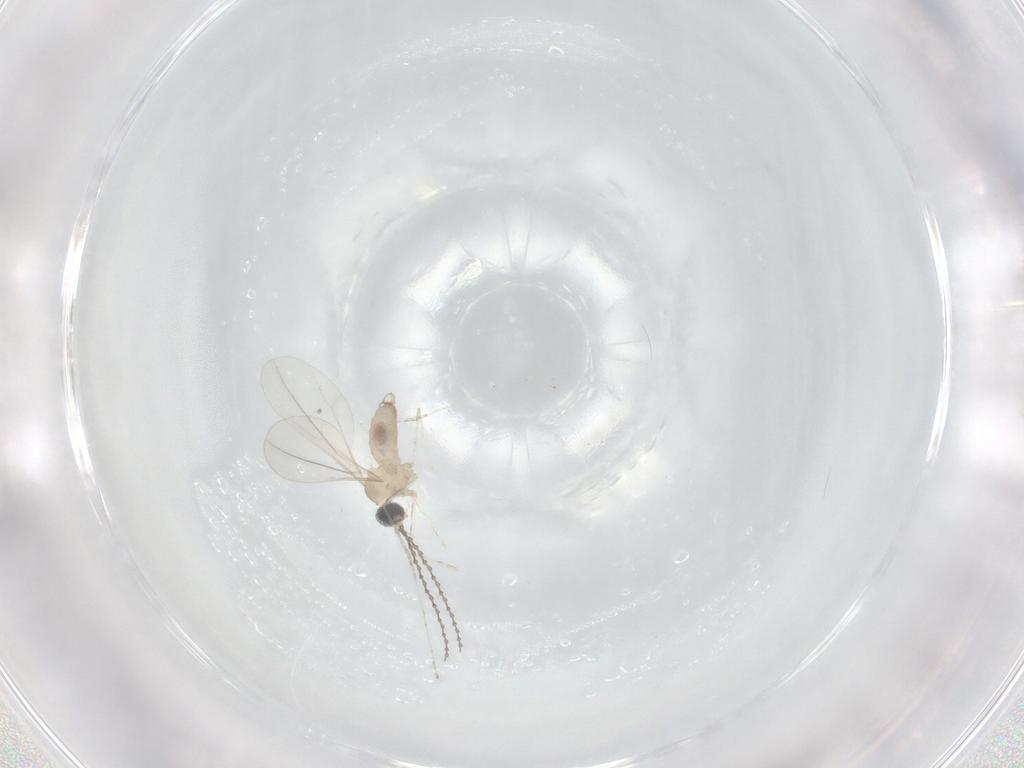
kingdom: Animalia
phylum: Arthropoda
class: Insecta
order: Diptera
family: Cecidomyiidae
